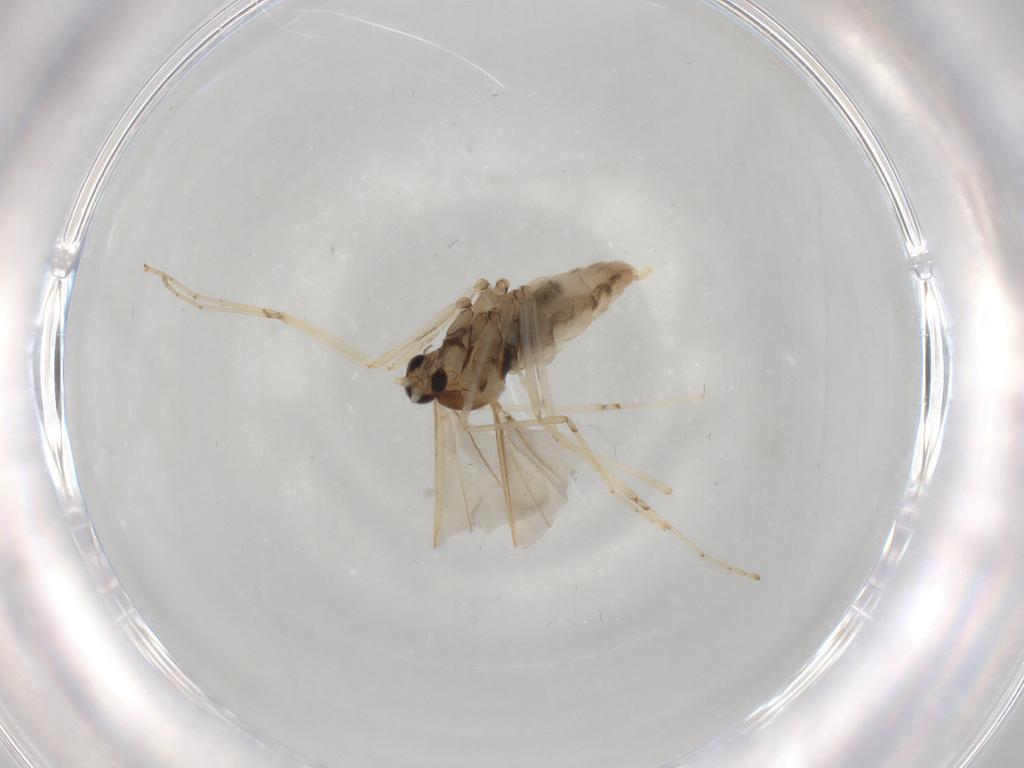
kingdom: Animalia
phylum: Arthropoda
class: Insecta
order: Diptera
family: Cecidomyiidae
